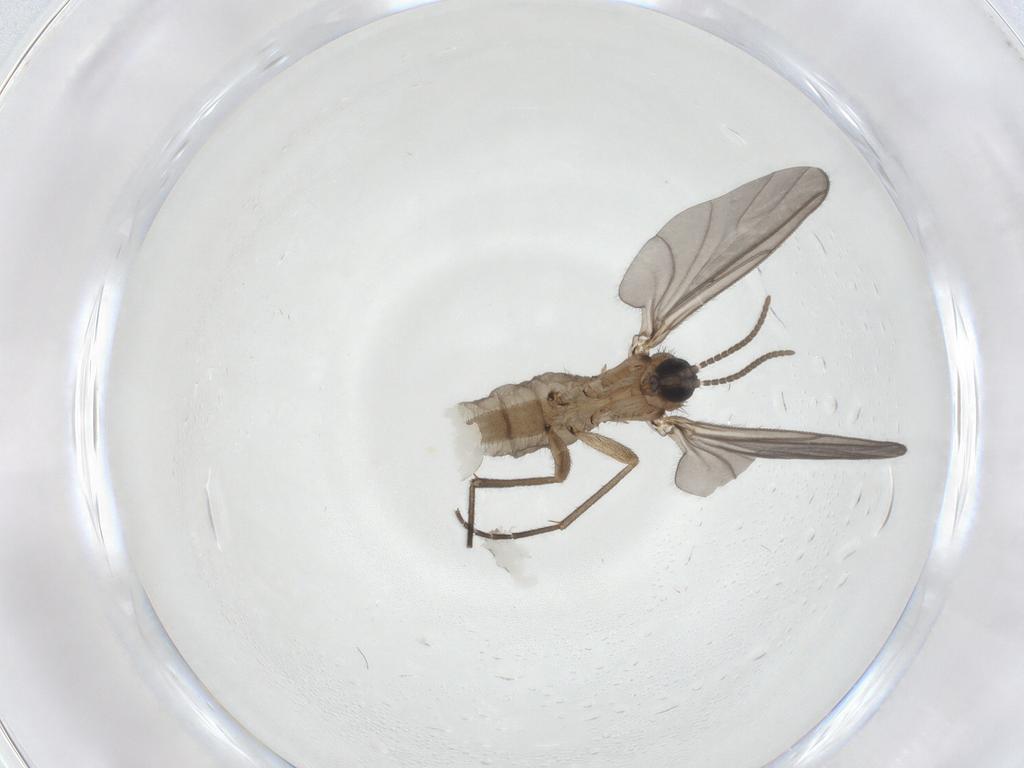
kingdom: Animalia
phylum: Arthropoda
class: Insecta
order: Diptera
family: Sciaridae
